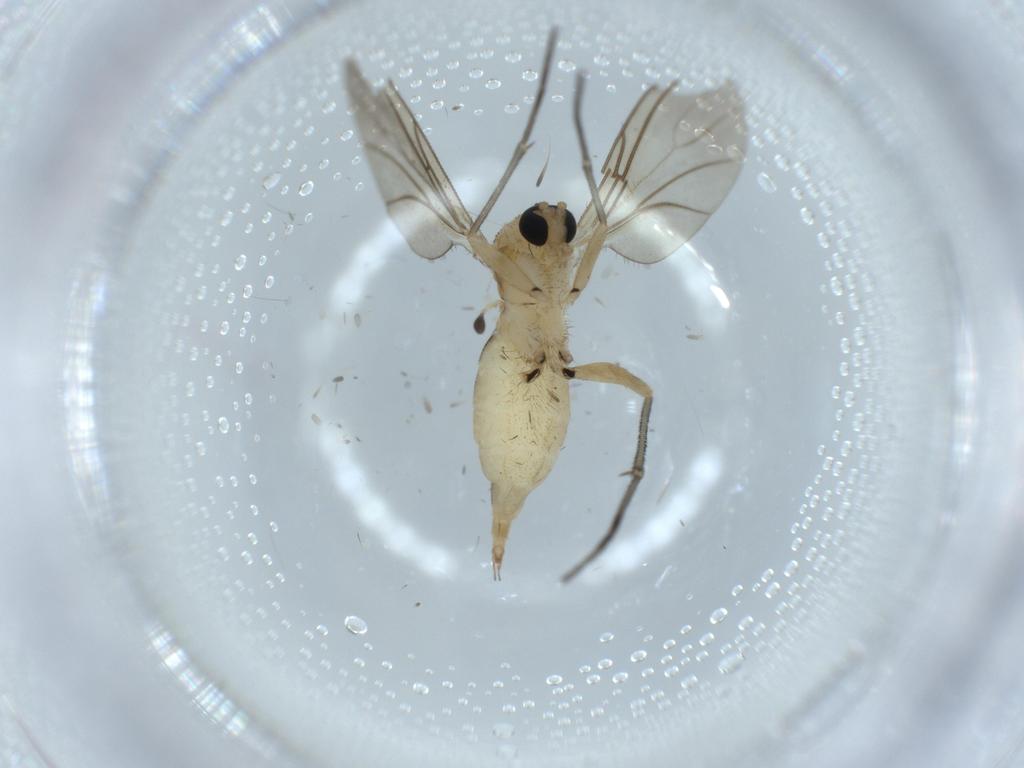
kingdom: Animalia
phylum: Arthropoda
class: Insecta
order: Diptera
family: Sciaridae
